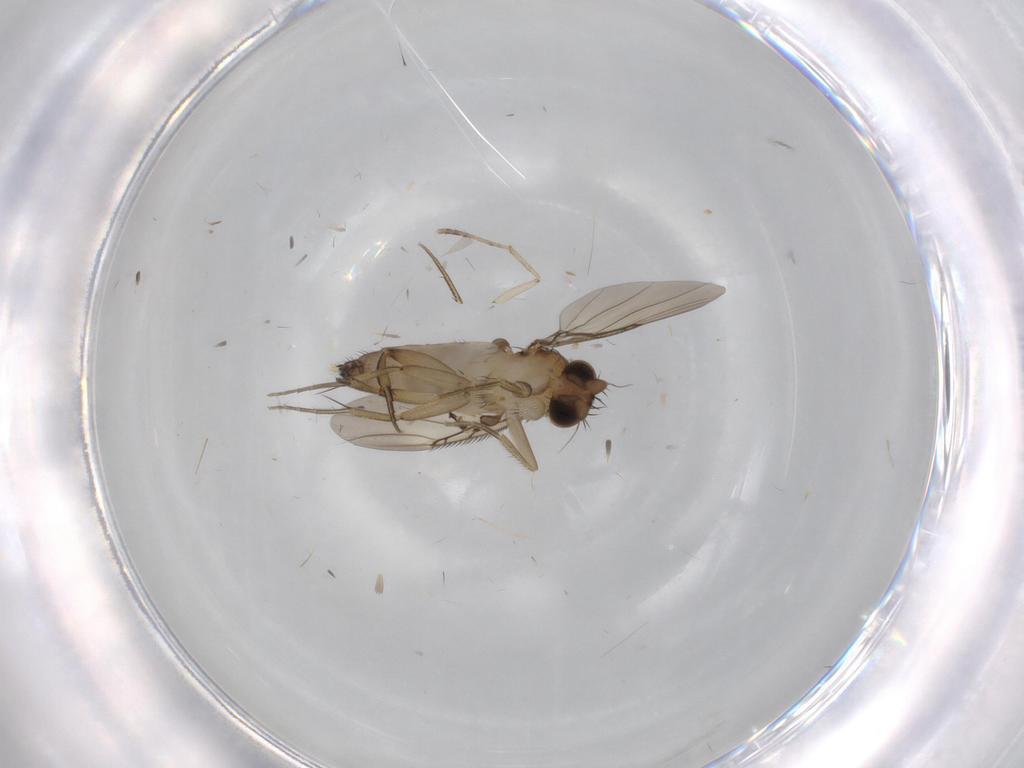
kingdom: Animalia
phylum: Arthropoda
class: Insecta
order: Diptera
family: Phoridae
